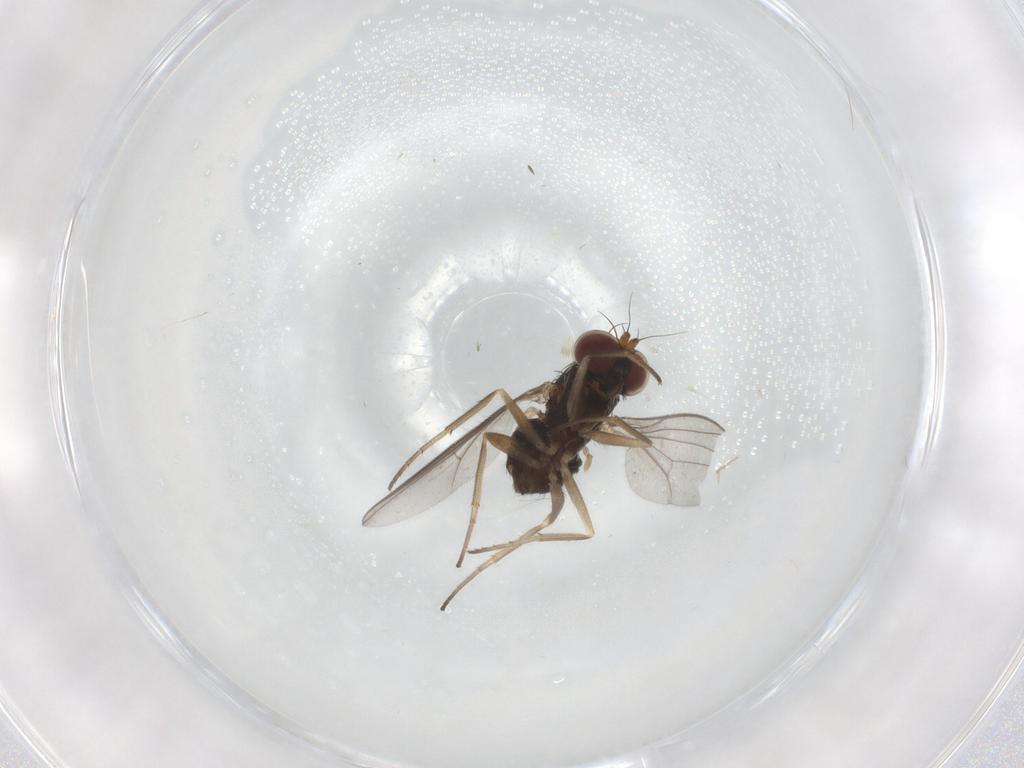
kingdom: Animalia
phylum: Arthropoda
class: Insecta
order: Diptera
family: Dolichopodidae
